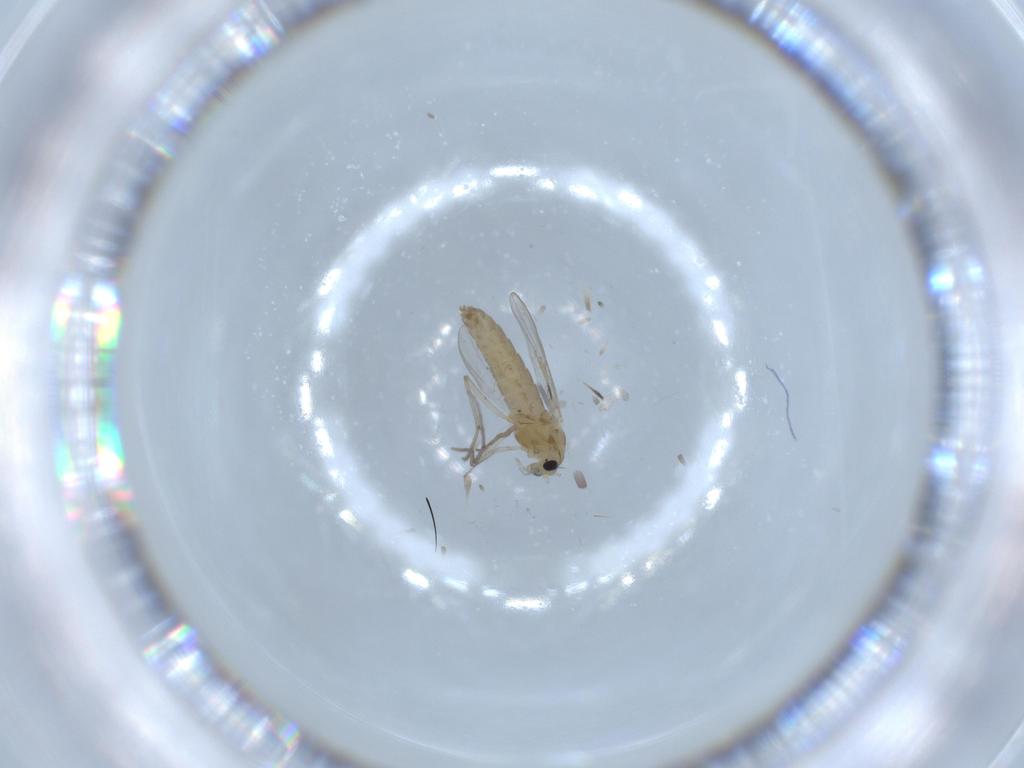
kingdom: Animalia
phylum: Arthropoda
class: Insecta
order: Diptera
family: Chironomidae
